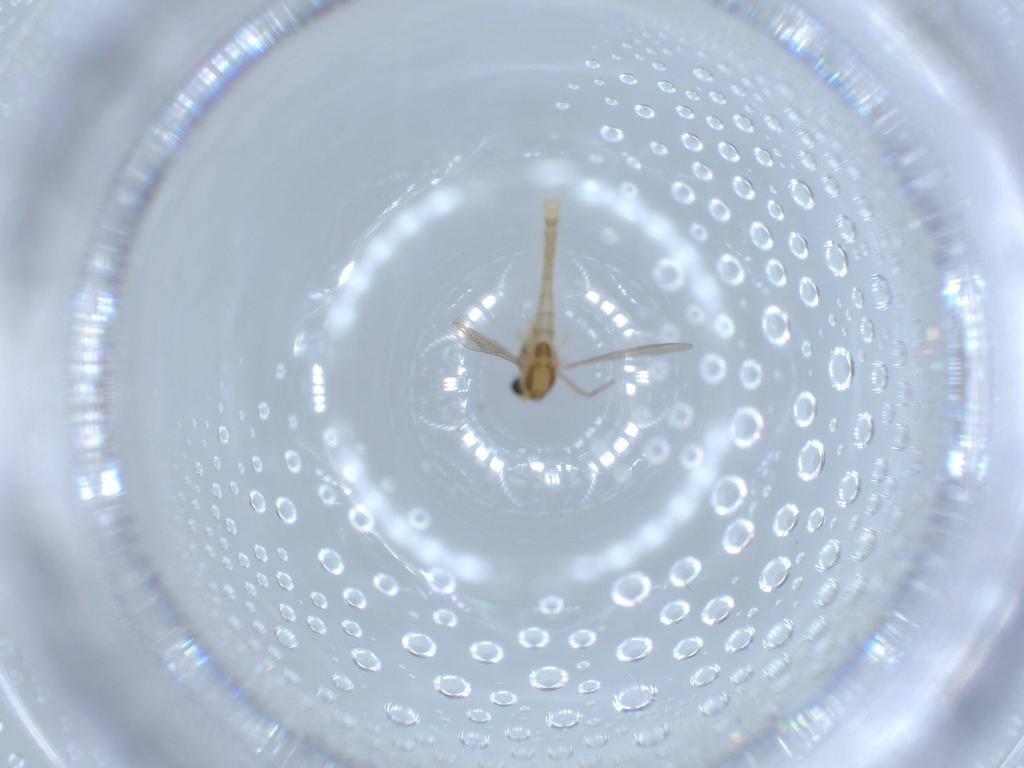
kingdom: Animalia
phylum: Arthropoda
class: Insecta
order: Diptera
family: Chironomidae
